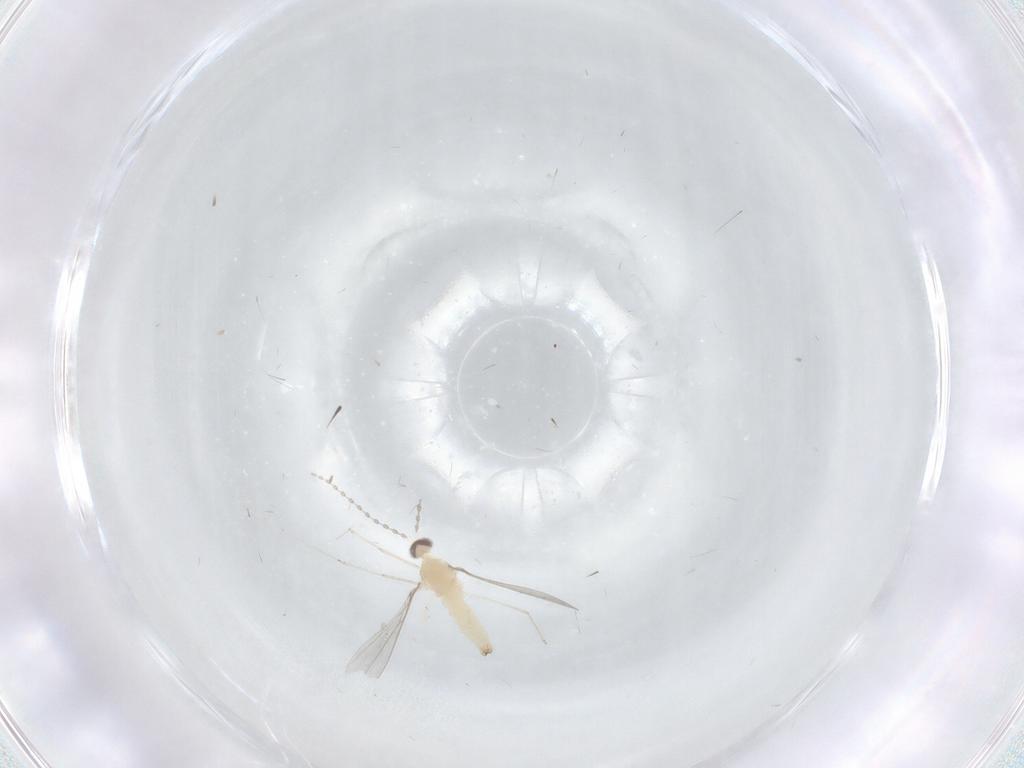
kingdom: Animalia
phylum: Arthropoda
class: Insecta
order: Diptera
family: Cecidomyiidae
